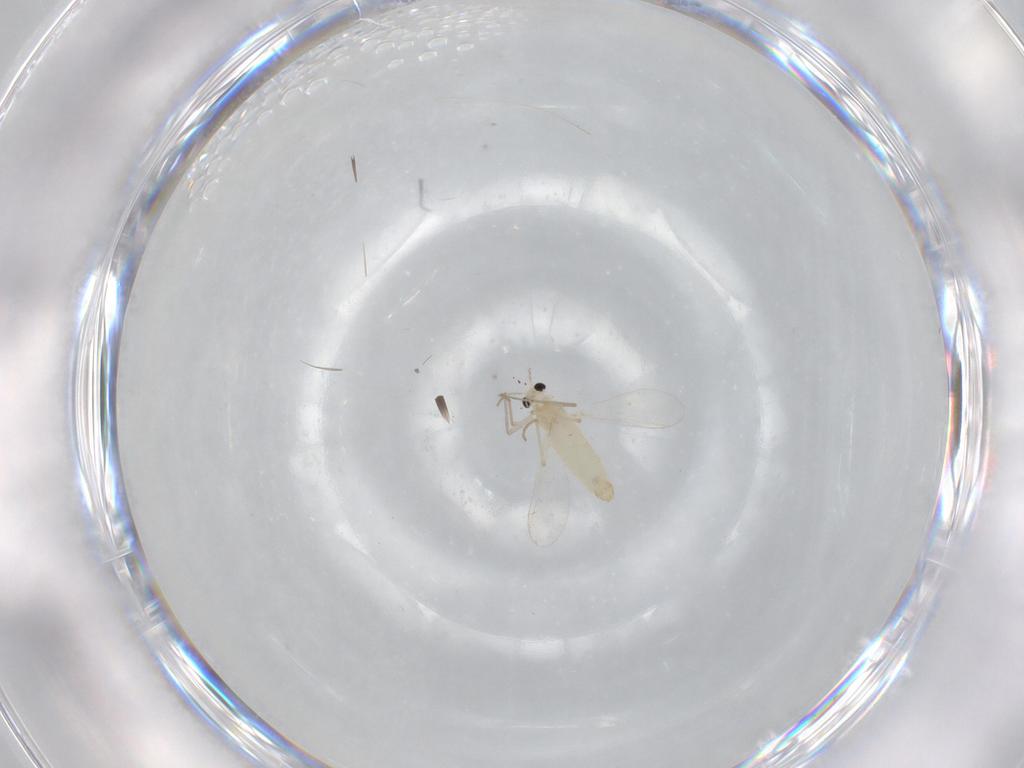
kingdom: Animalia
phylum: Arthropoda
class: Insecta
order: Diptera
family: Chironomidae
